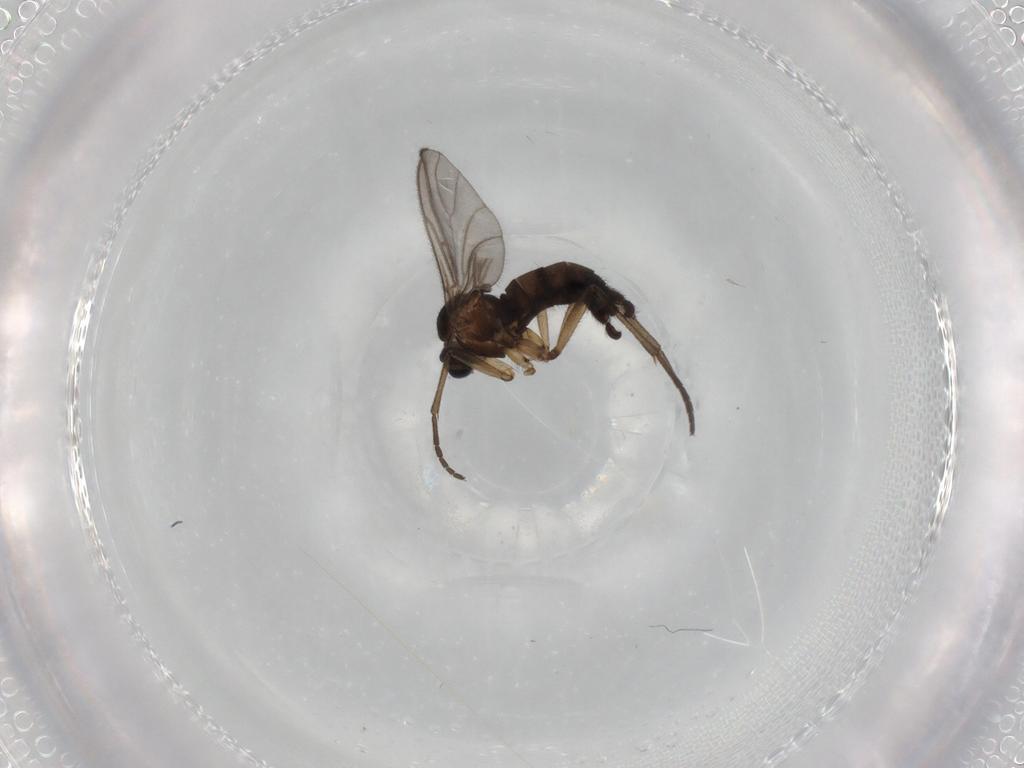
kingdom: Animalia
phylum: Arthropoda
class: Insecta
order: Diptera
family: Sciaridae
